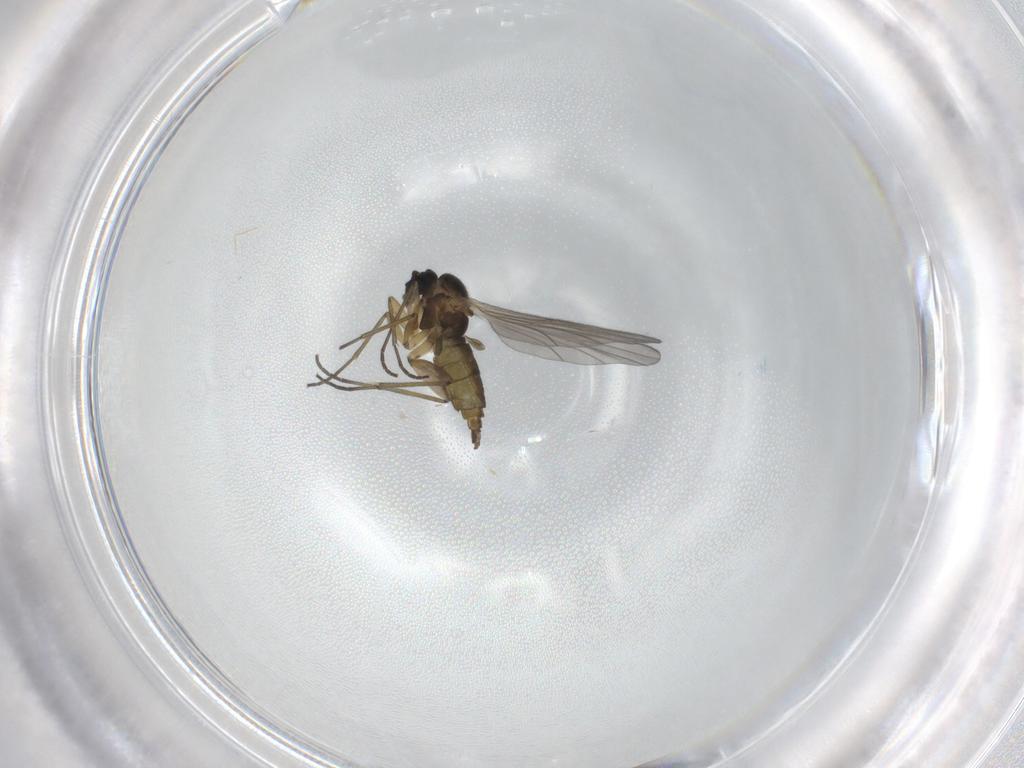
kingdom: Animalia
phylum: Arthropoda
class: Insecta
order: Diptera
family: Sciaridae
